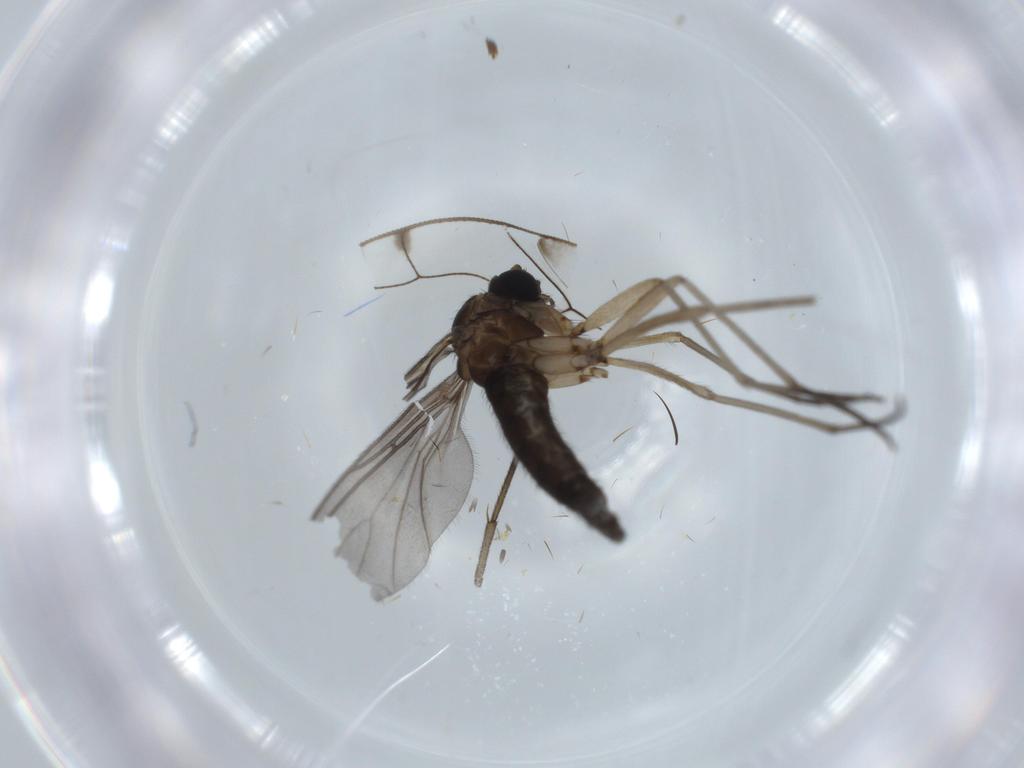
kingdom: Animalia
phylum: Arthropoda
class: Insecta
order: Diptera
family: Sciaridae
